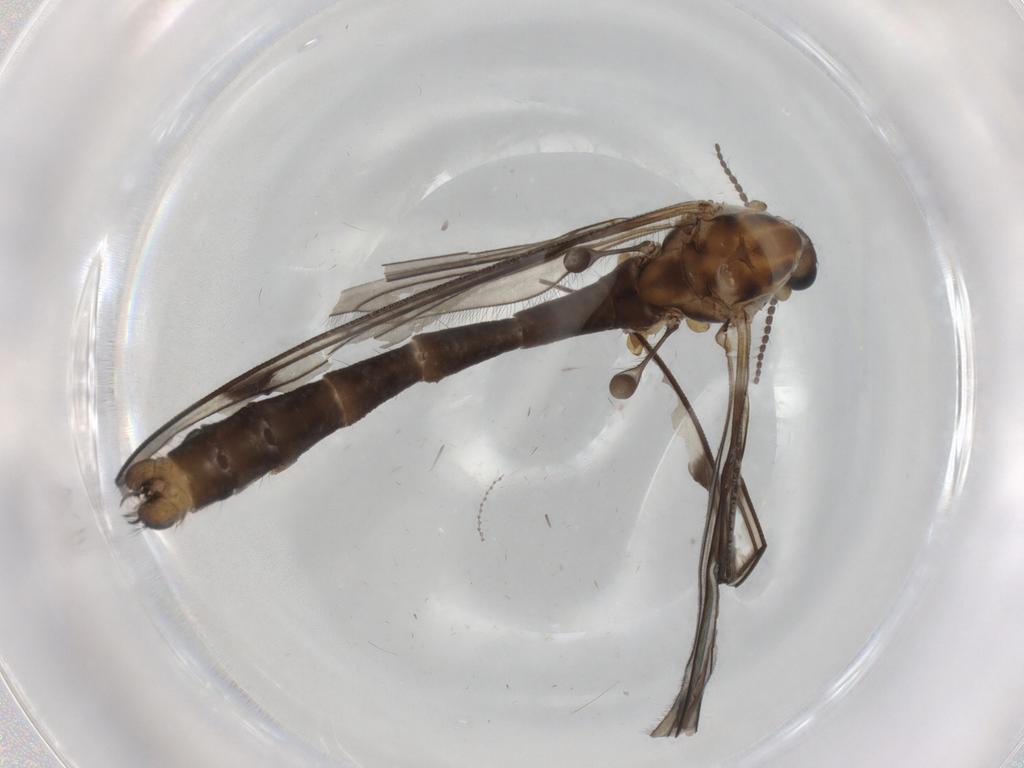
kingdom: Animalia
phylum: Arthropoda
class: Insecta
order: Diptera
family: Limoniidae
